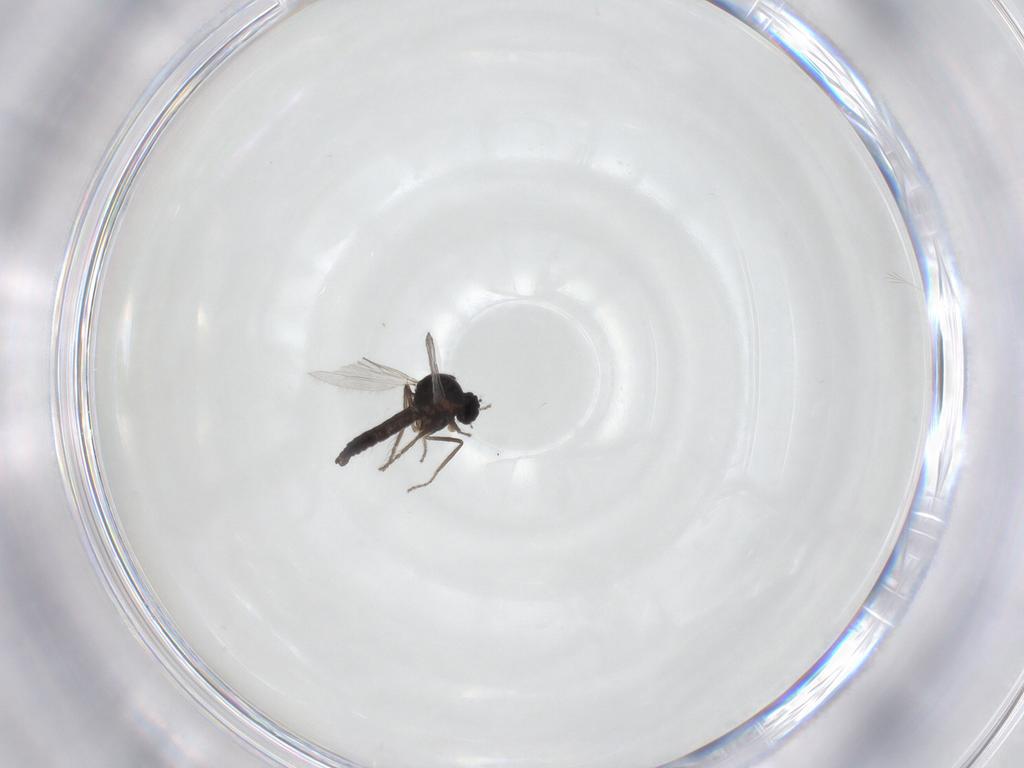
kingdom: Animalia
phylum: Arthropoda
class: Insecta
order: Diptera
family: Ceratopogonidae
